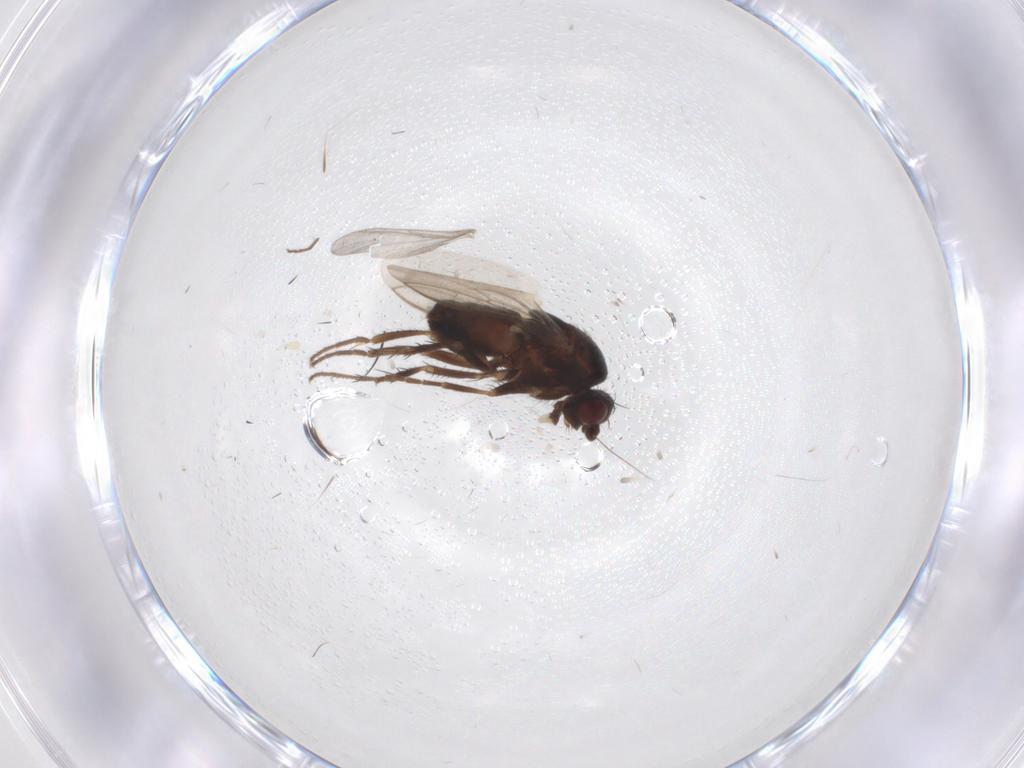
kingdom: Animalia
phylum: Arthropoda
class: Insecta
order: Diptera
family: Sphaeroceridae
